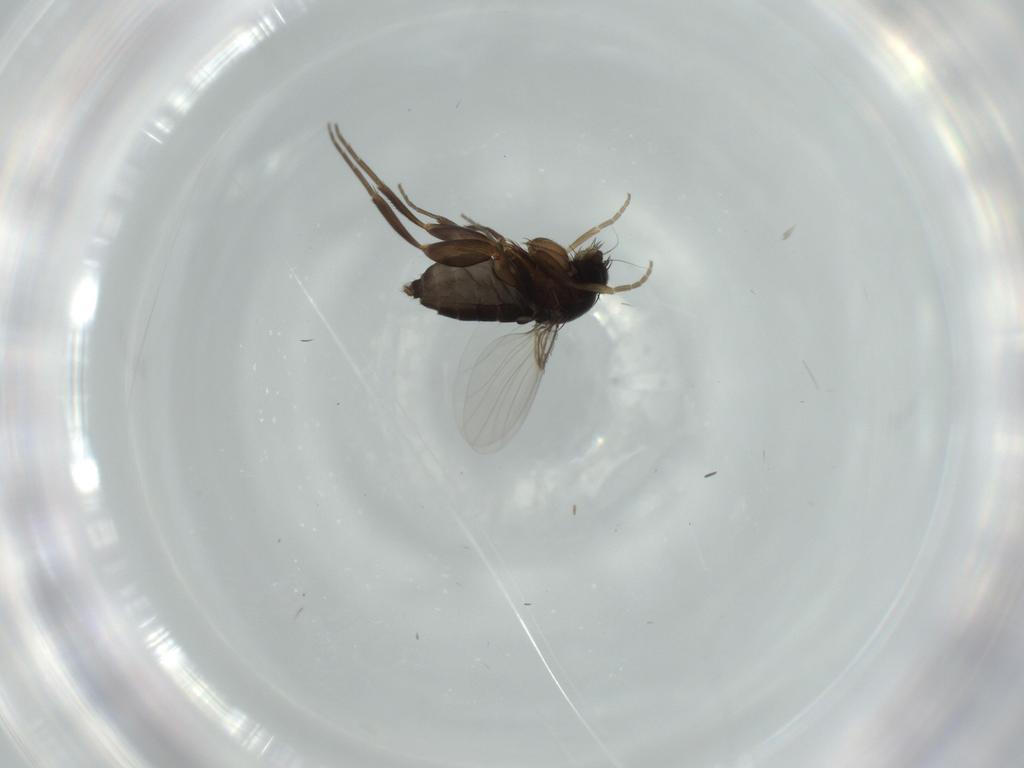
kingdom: Animalia
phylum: Arthropoda
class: Insecta
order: Diptera
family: Phoridae
